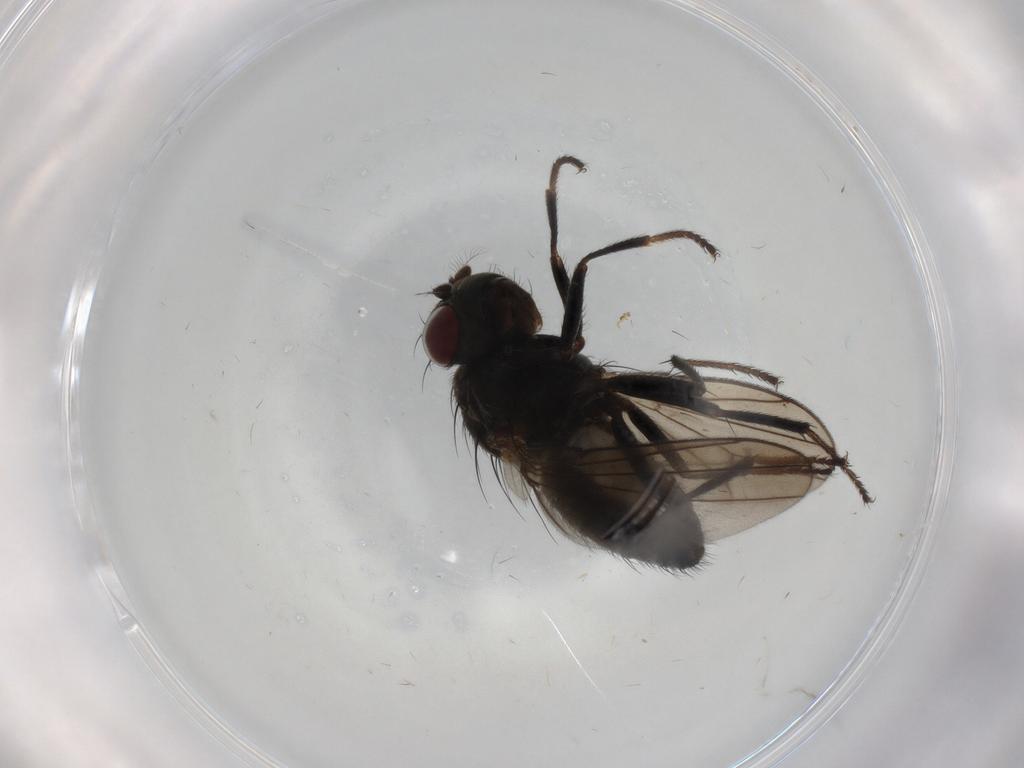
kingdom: Animalia
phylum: Arthropoda
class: Insecta
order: Diptera
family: Ephydridae
